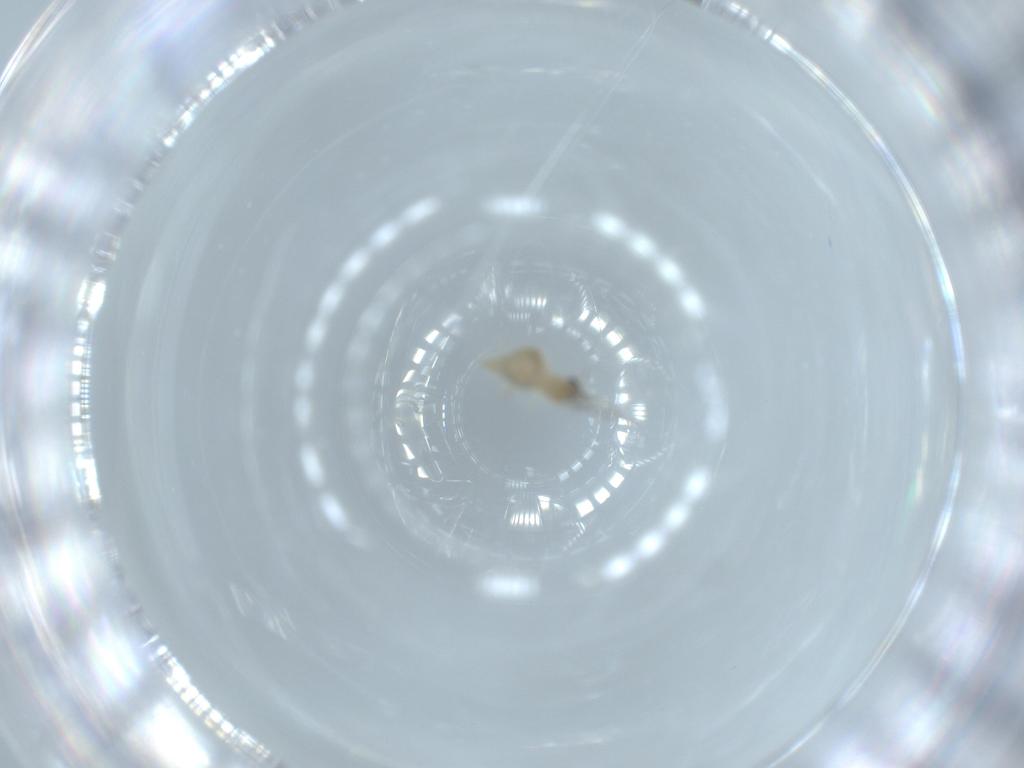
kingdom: Animalia
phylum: Arthropoda
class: Insecta
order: Diptera
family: Cecidomyiidae
